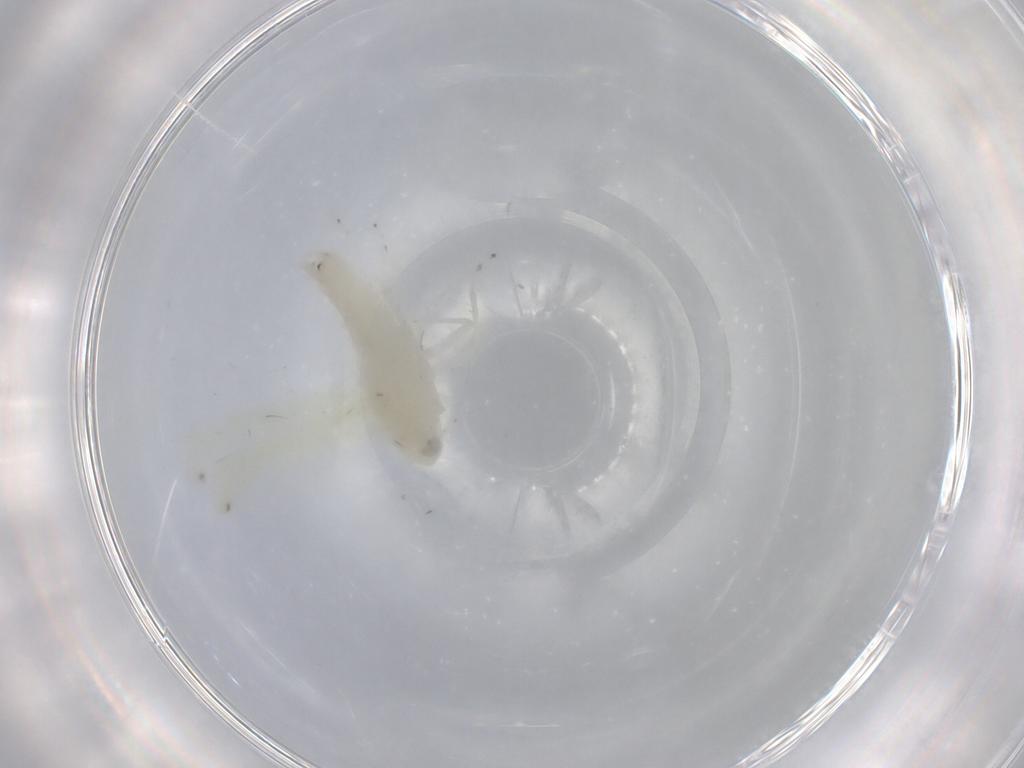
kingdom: Animalia
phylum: Arthropoda
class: Insecta
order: Hemiptera
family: Cicadellidae
